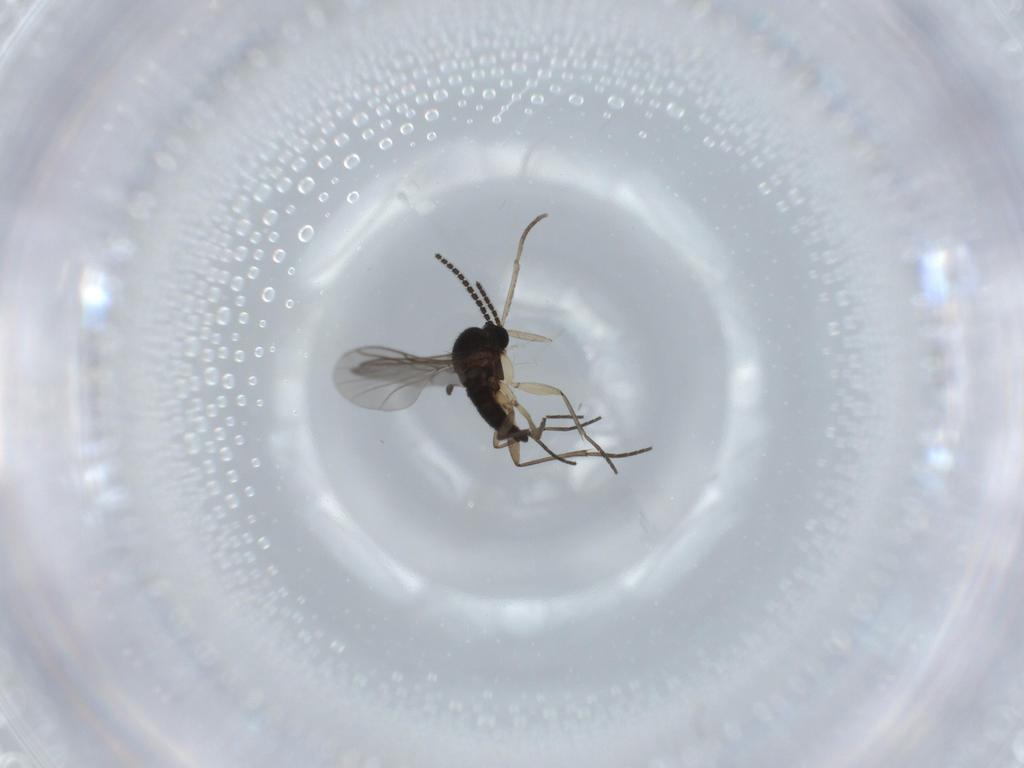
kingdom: Animalia
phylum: Arthropoda
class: Insecta
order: Diptera
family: Sciaridae
